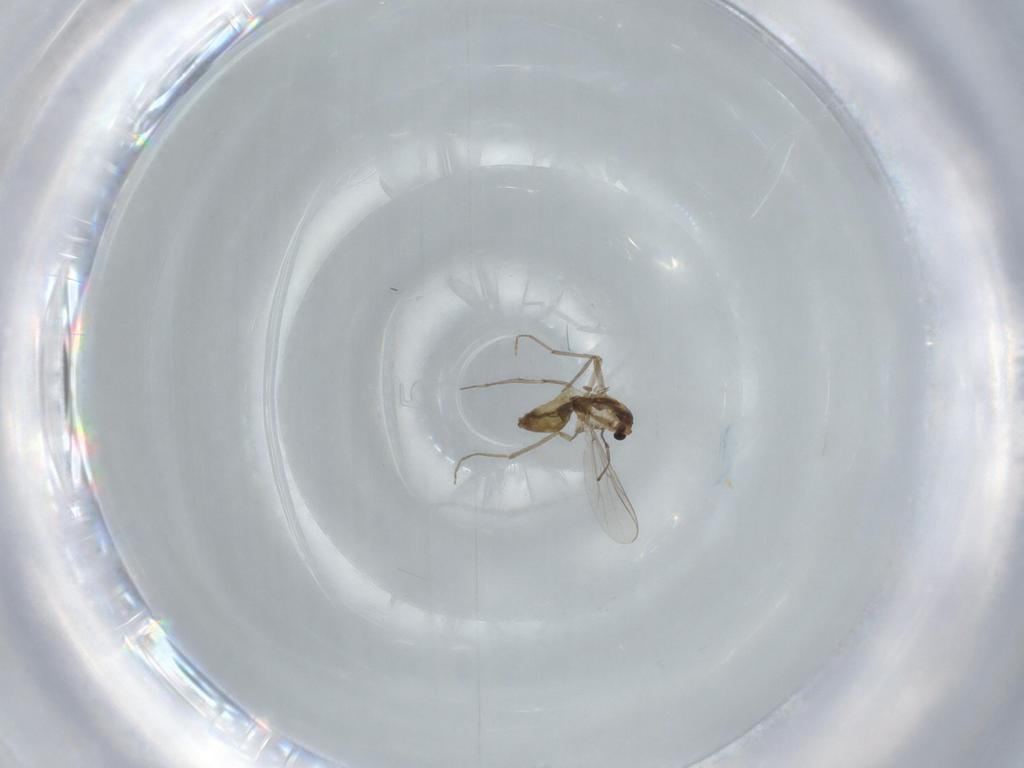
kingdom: Animalia
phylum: Arthropoda
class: Insecta
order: Diptera
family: Chironomidae
